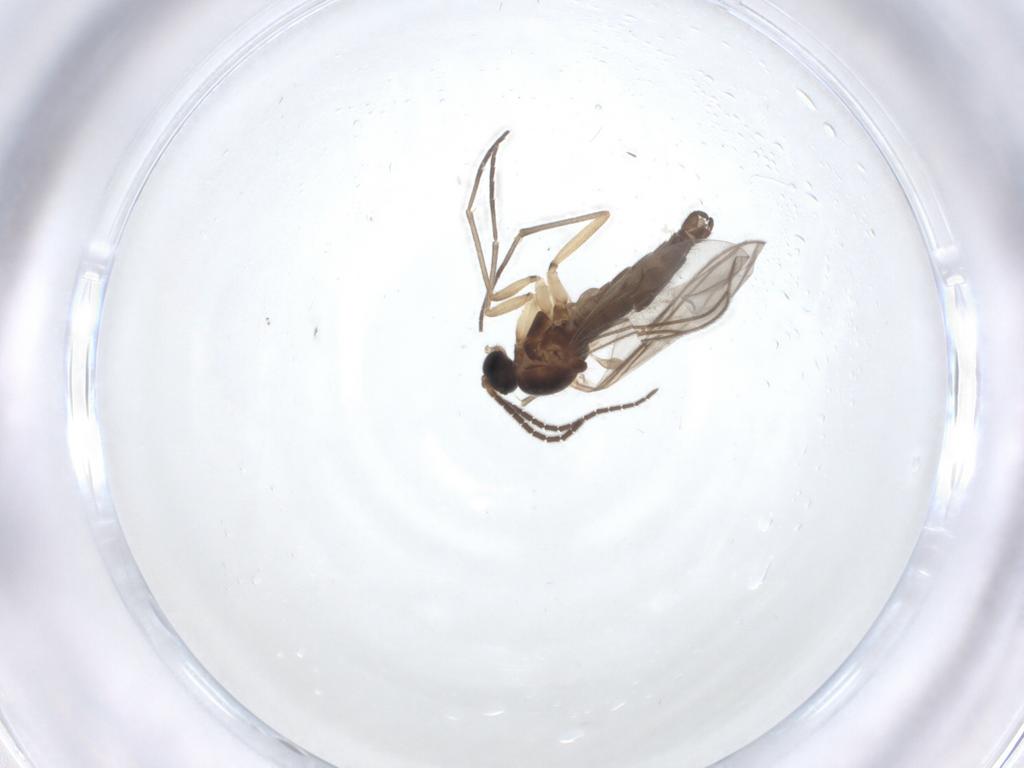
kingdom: Animalia
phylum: Arthropoda
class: Insecta
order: Diptera
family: Sciaridae
